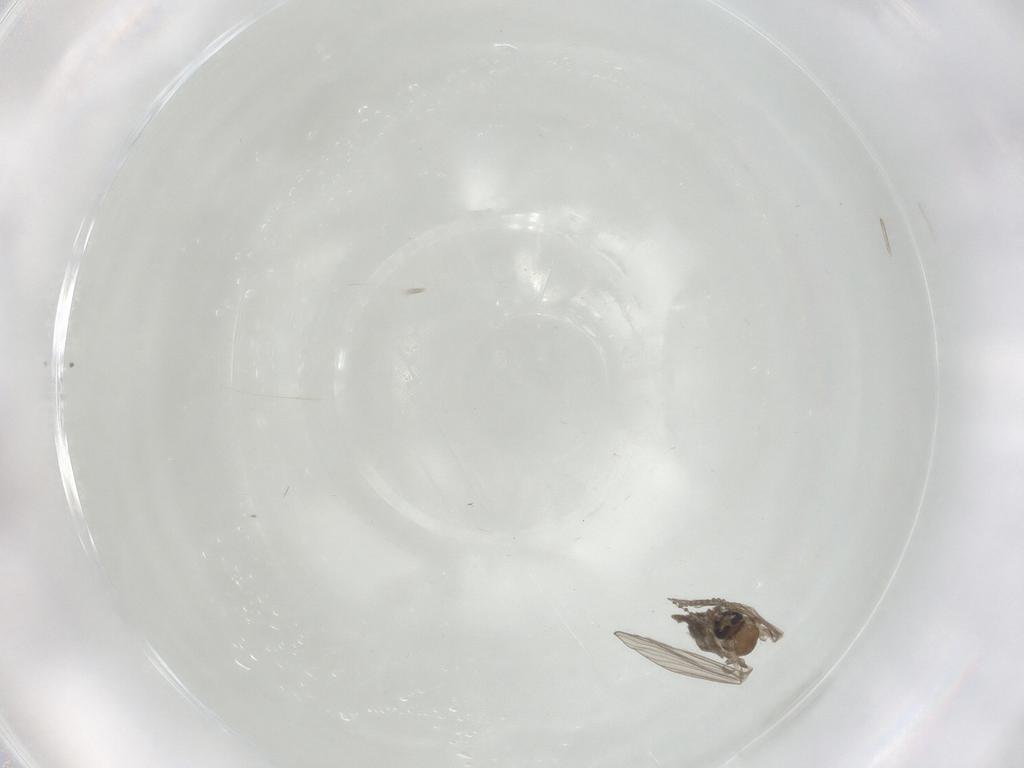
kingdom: Animalia
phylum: Arthropoda
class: Insecta
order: Diptera
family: Psychodidae
